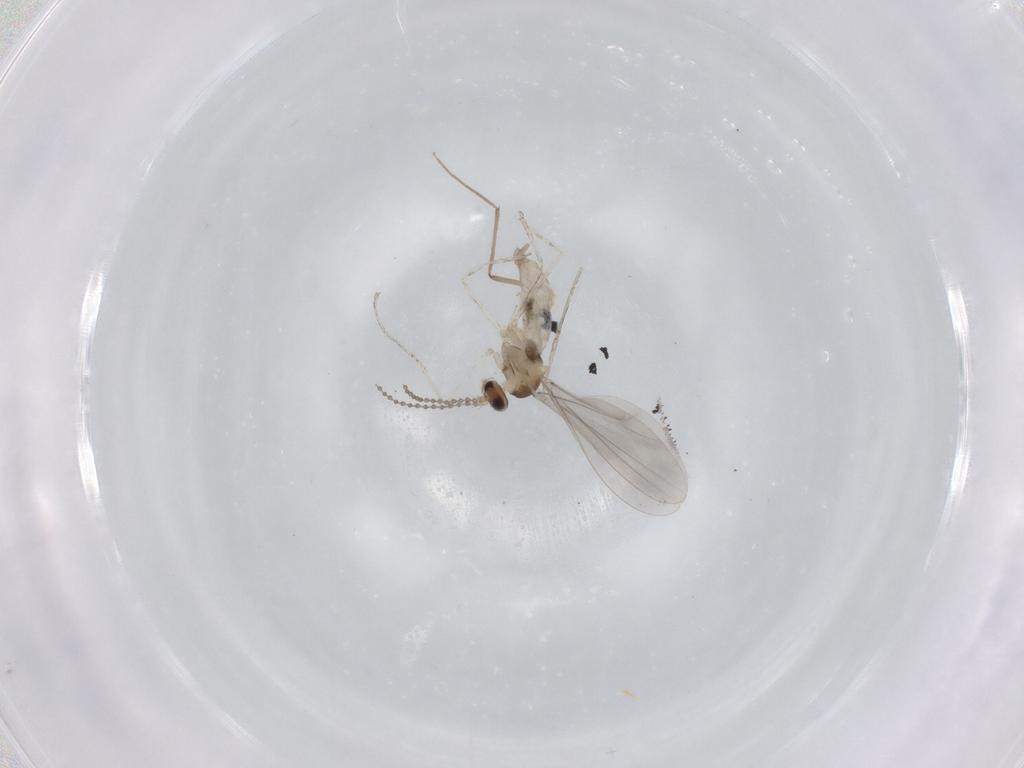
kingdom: Animalia
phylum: Arthropoda
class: Insecta
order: Diptera
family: Cecidomyiidae
